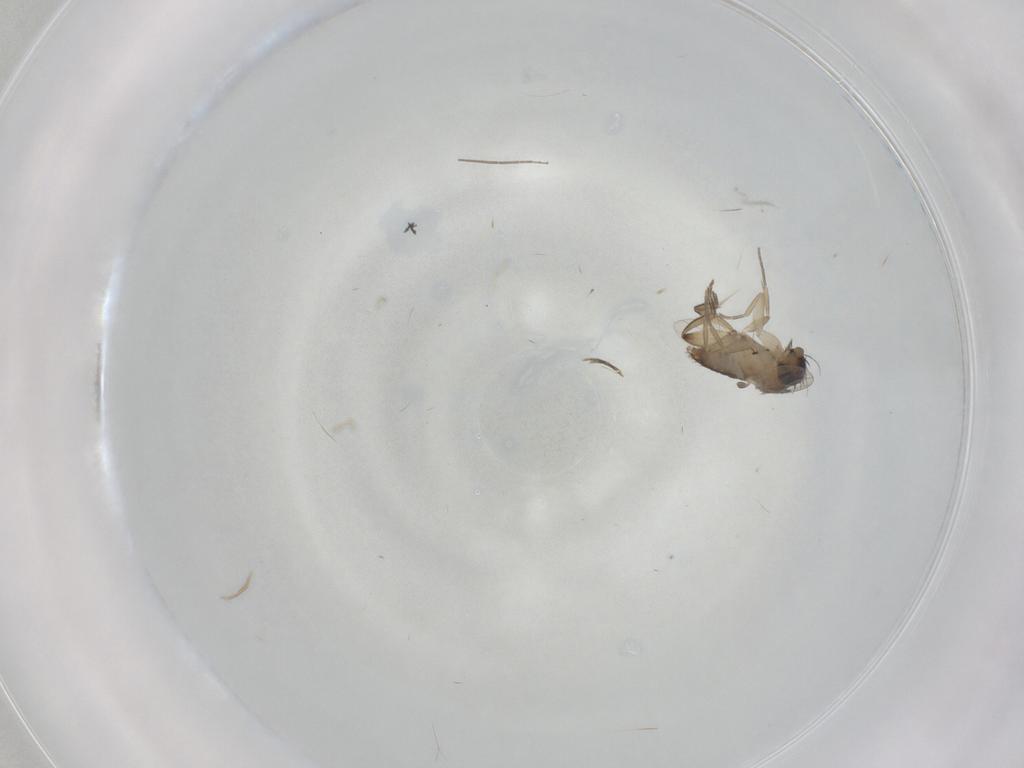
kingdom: Animalia
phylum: Arthropoda
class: Insecta
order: Diptera
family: Phoridae
